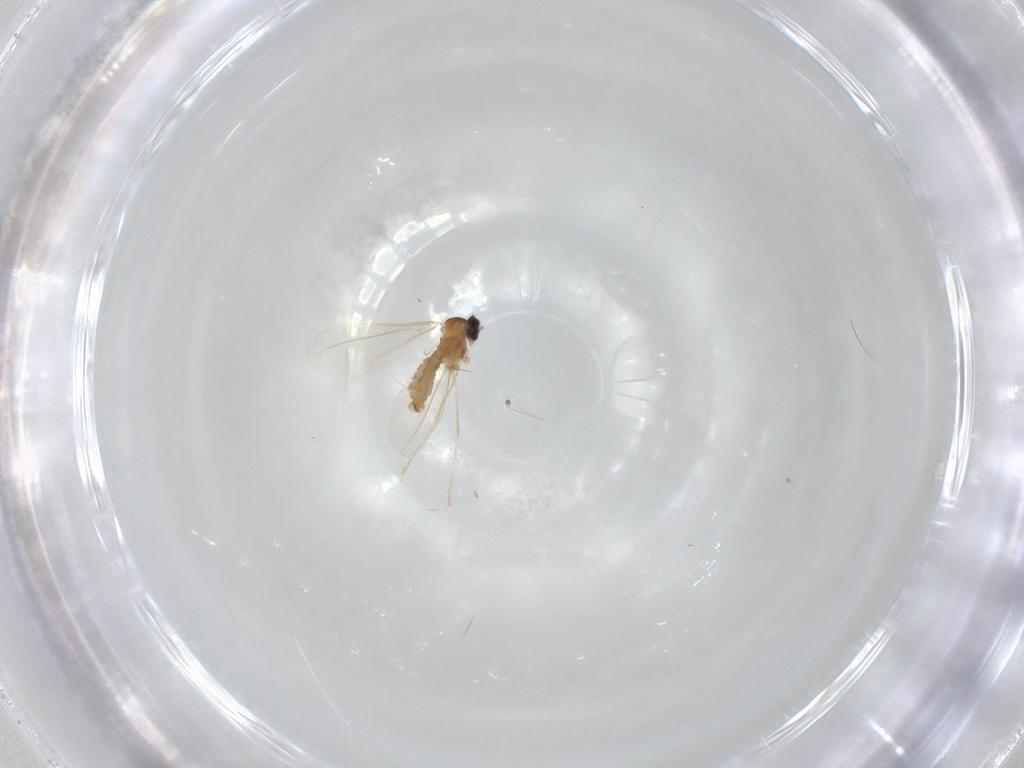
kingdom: Animalia
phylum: Arthropoda
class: Insecta
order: Diptera
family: Cecidomyiidae
